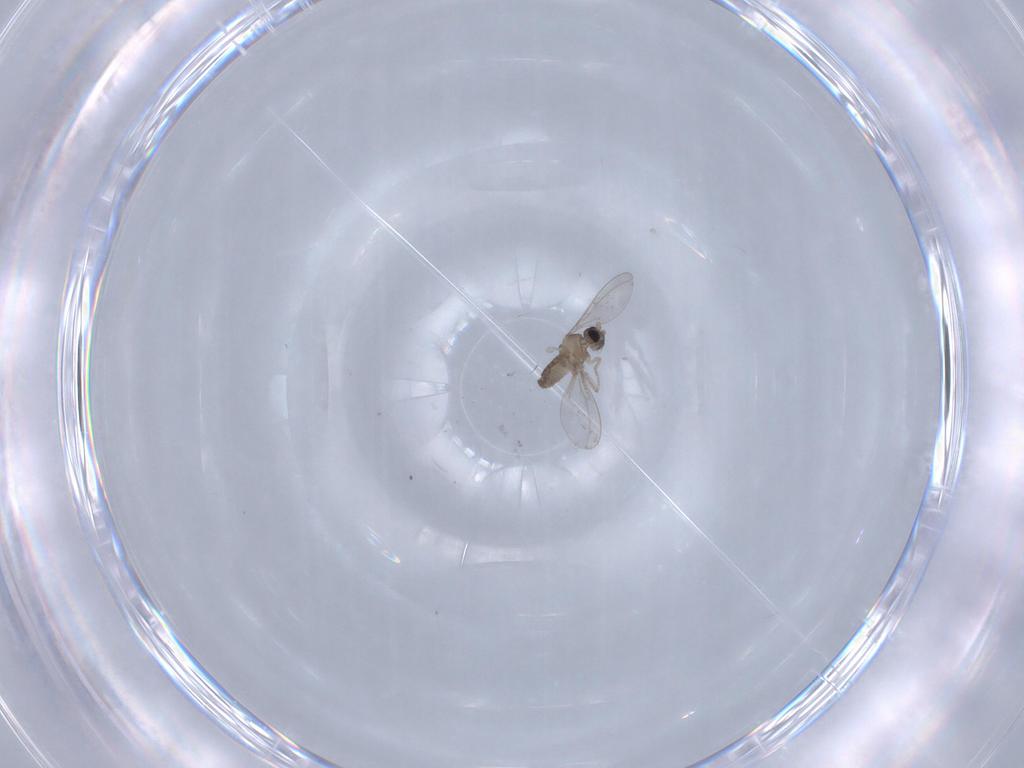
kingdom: Animalia
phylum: Arthropoda
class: Insecta
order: Diptera
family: Cecidomyiidae
